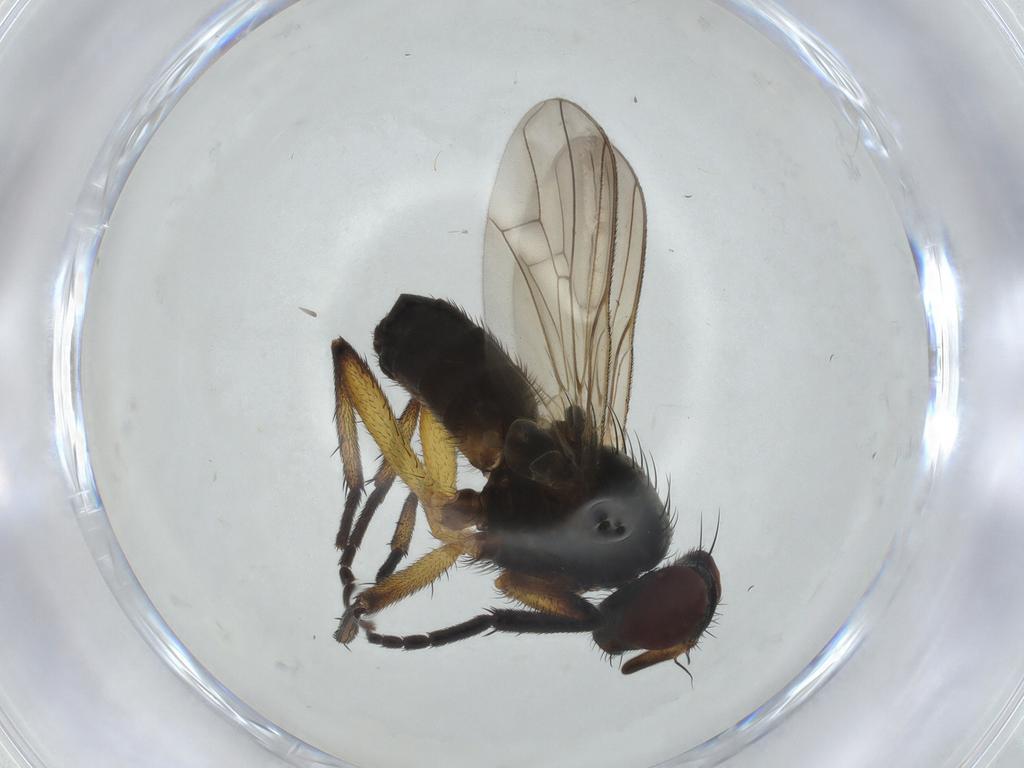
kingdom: Animalia
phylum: Arthropoda
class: Insecta
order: Diptera
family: Tachinidae
